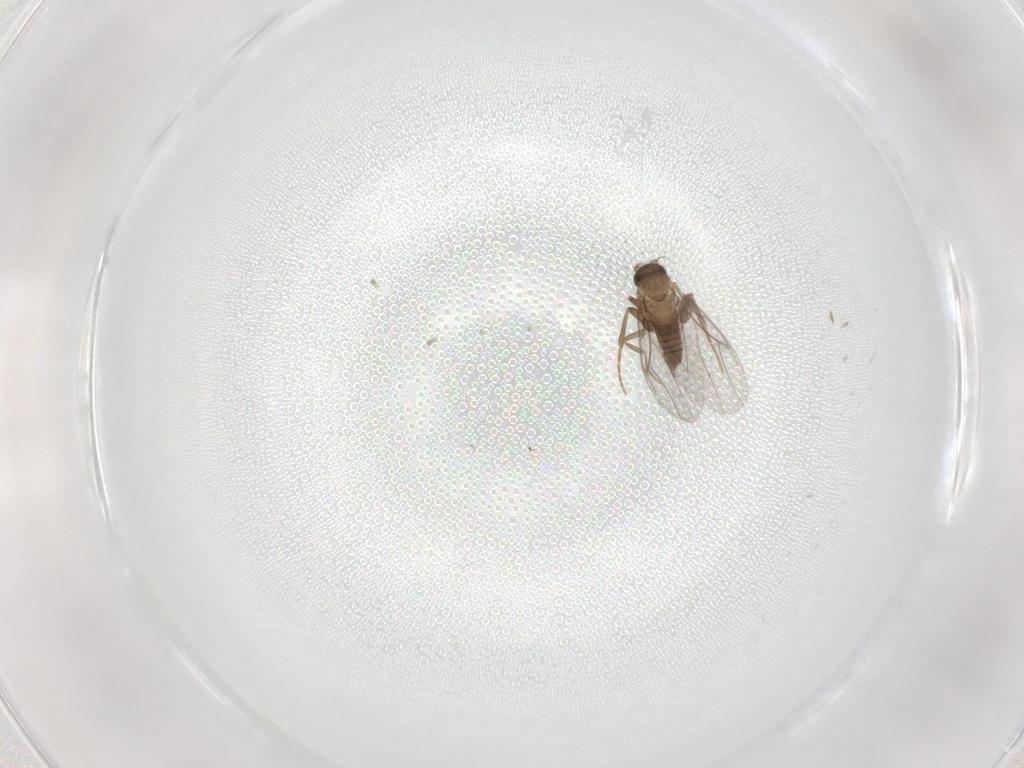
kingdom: Animalia
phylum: Arthropoda
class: Insecta
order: Diptera
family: Cecidomyiidae
